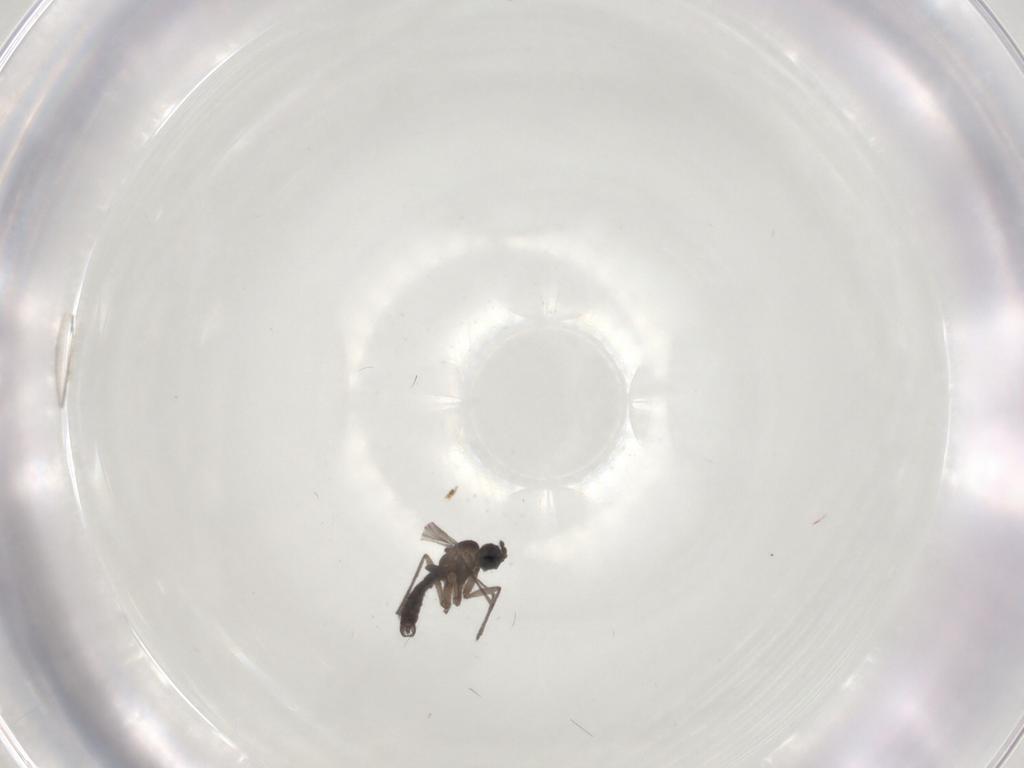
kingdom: Animalia
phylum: Arthropoda
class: Insecta
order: Diptera
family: Chironomidae
